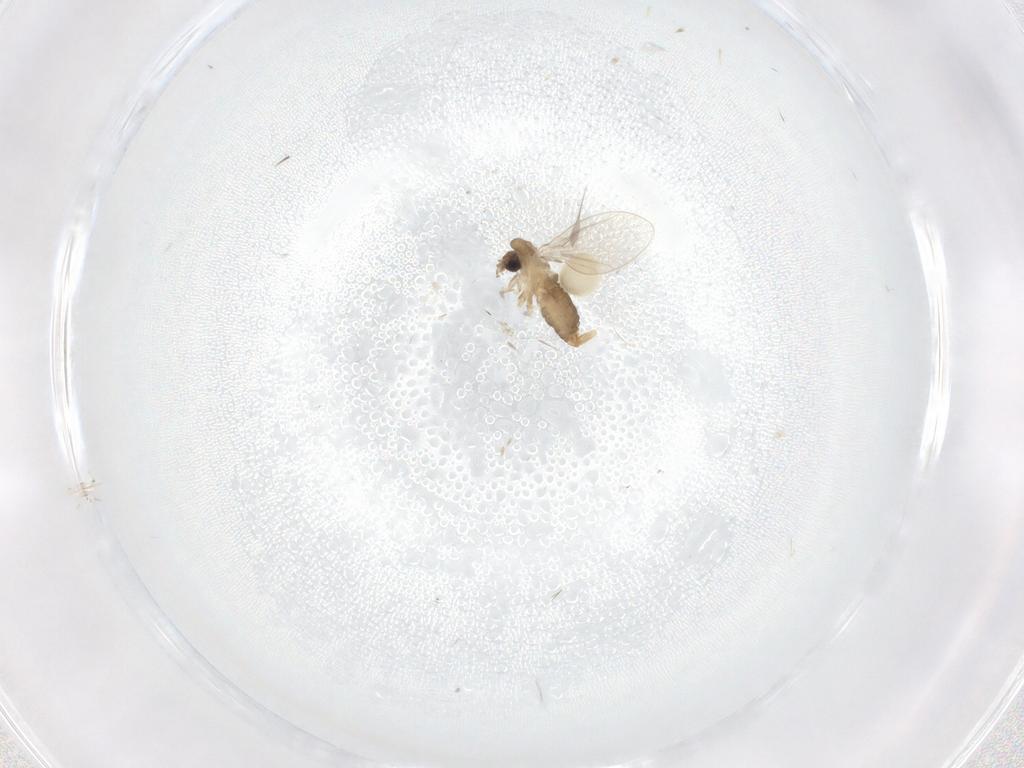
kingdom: Animalia
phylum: Arthropoda
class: Insecta
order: Diptera
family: Psychodidae
